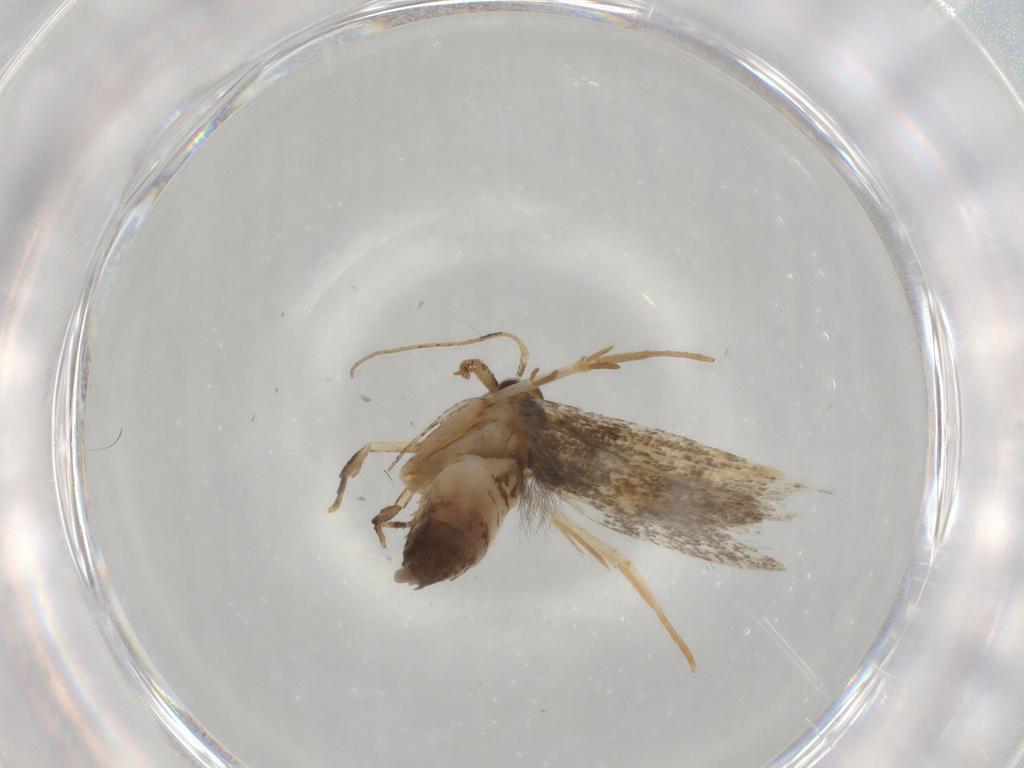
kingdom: Animalia
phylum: Arthropoda
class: Insecta
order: Lepidoptera
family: Cosmopterigidae
